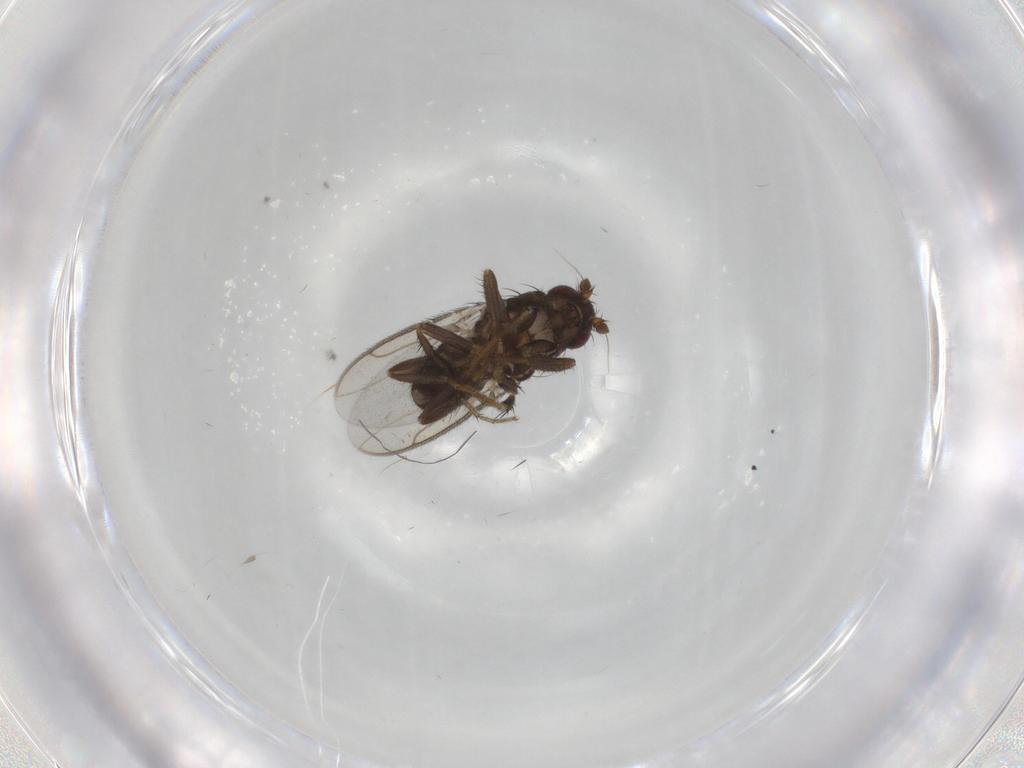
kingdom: Animalia
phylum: Arthropoda
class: Insecta
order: Diptera
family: Sphaeroceridae
